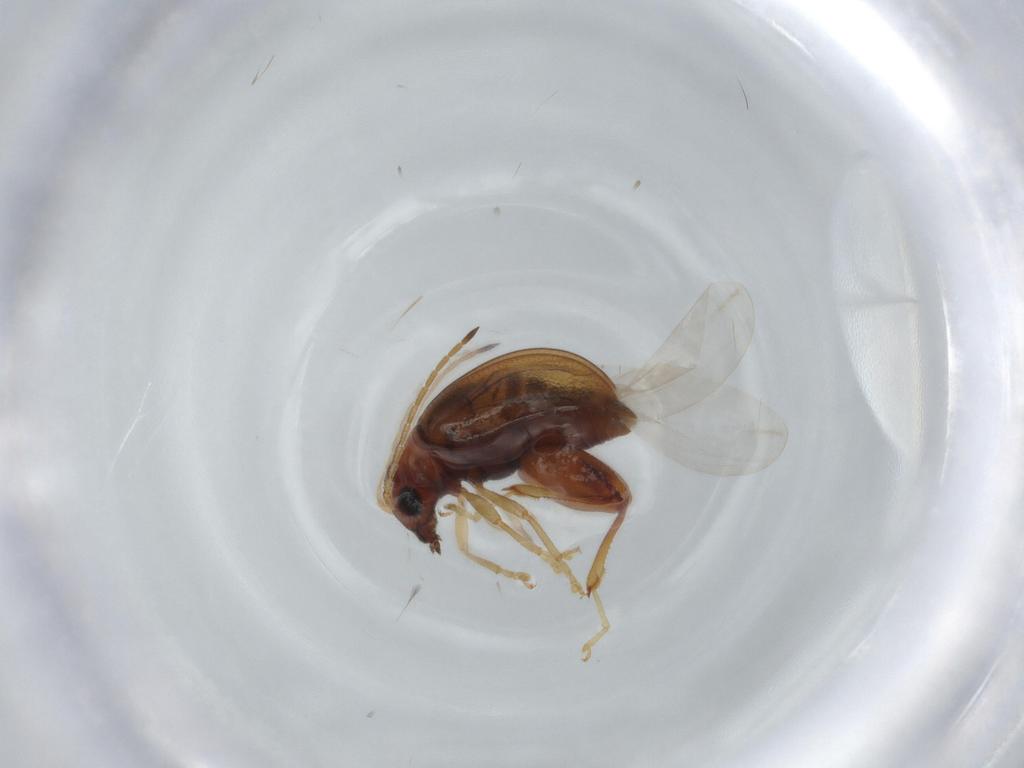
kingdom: Animalia
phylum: Arthropoda
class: Insecta
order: Coleoptera
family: Chrysomelidae
